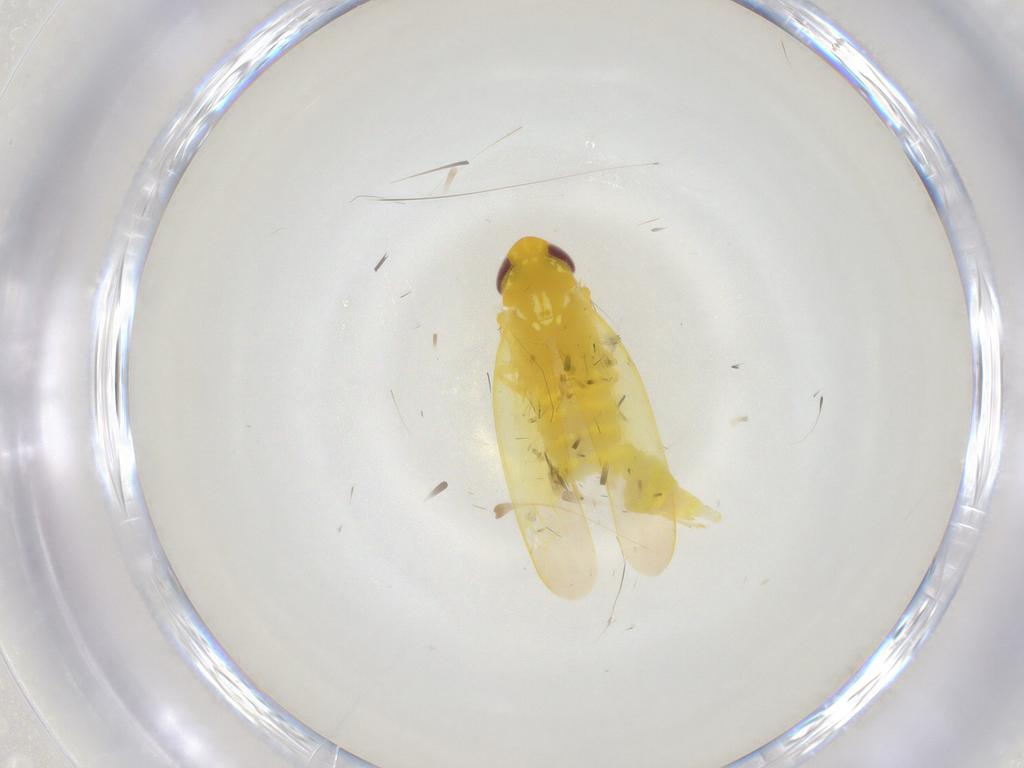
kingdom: Animalia
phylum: Arthropoda
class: Insecta
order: Hemiptera
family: Cicadellidae
